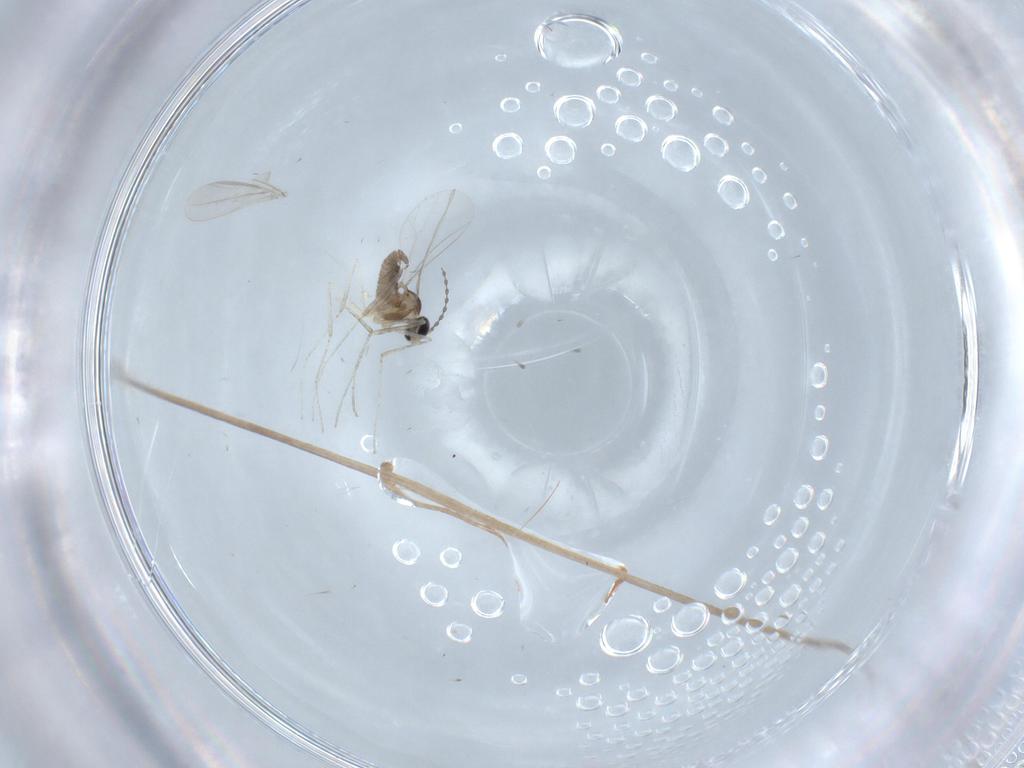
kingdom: Animalia
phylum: Arthropoda
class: Insecta
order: Diptera
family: Cecidomyiidae
